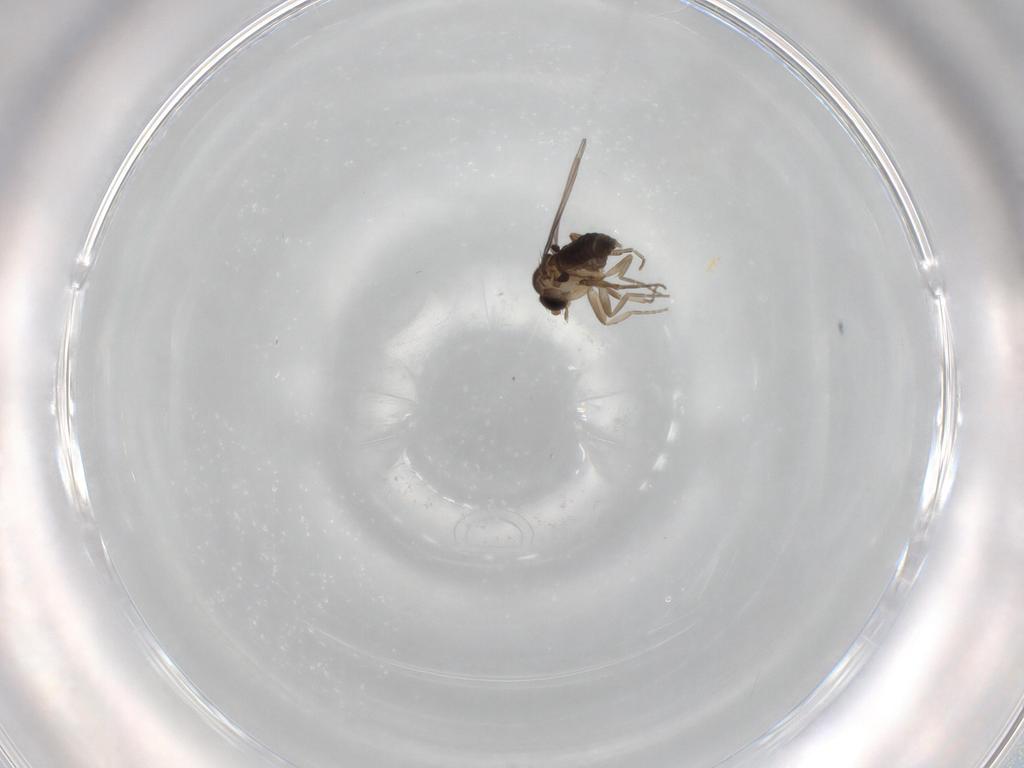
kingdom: Animalia
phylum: Arthropoda
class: Insecta
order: Diptera
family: Phoridae
